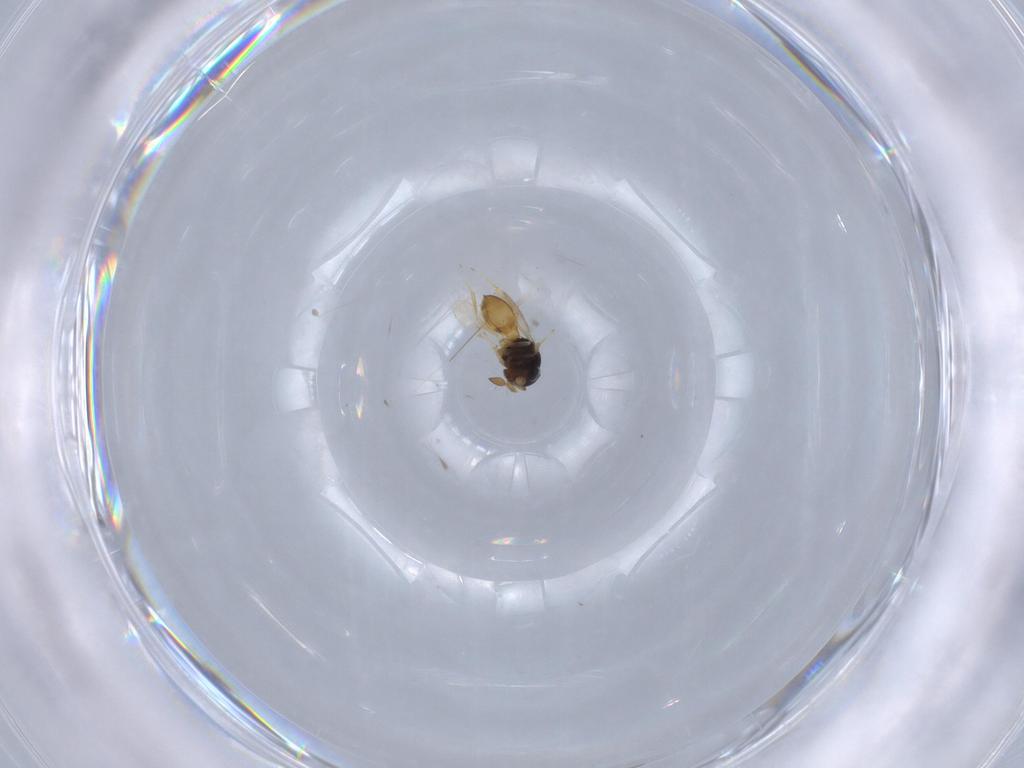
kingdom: Animalia
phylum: Arthropoda
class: Insecta
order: Hymenoptera
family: Scelionidae
